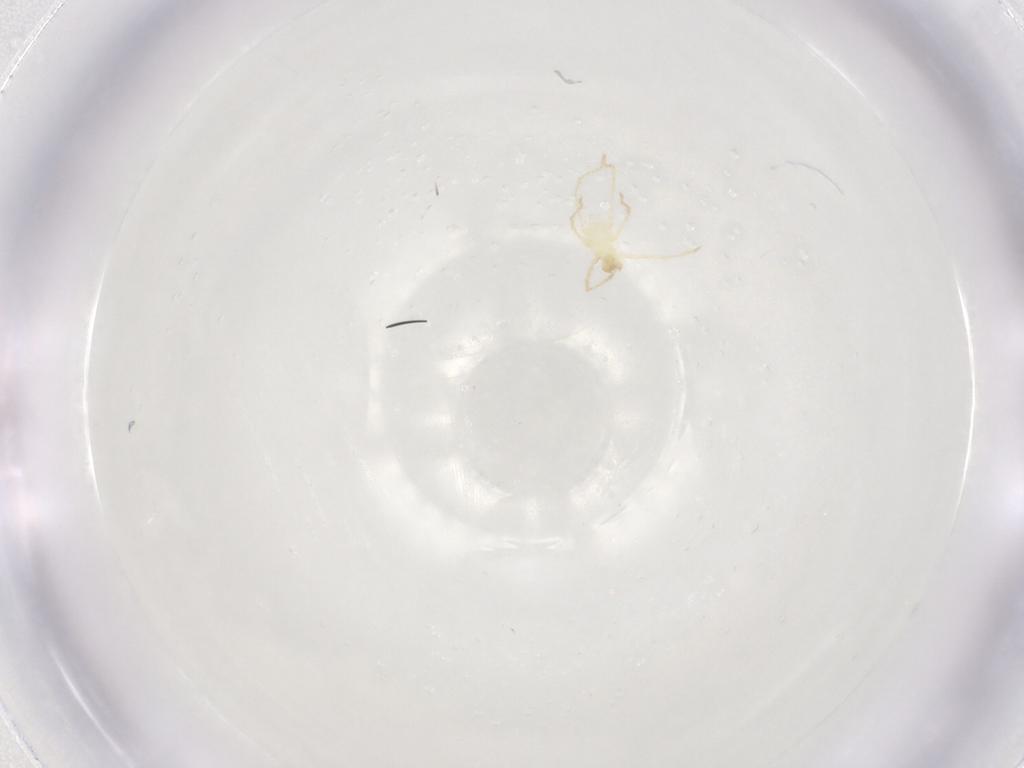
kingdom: Animalia
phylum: Arthropoda
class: Arachnida
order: Trombidiformes
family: Erythraeidae
